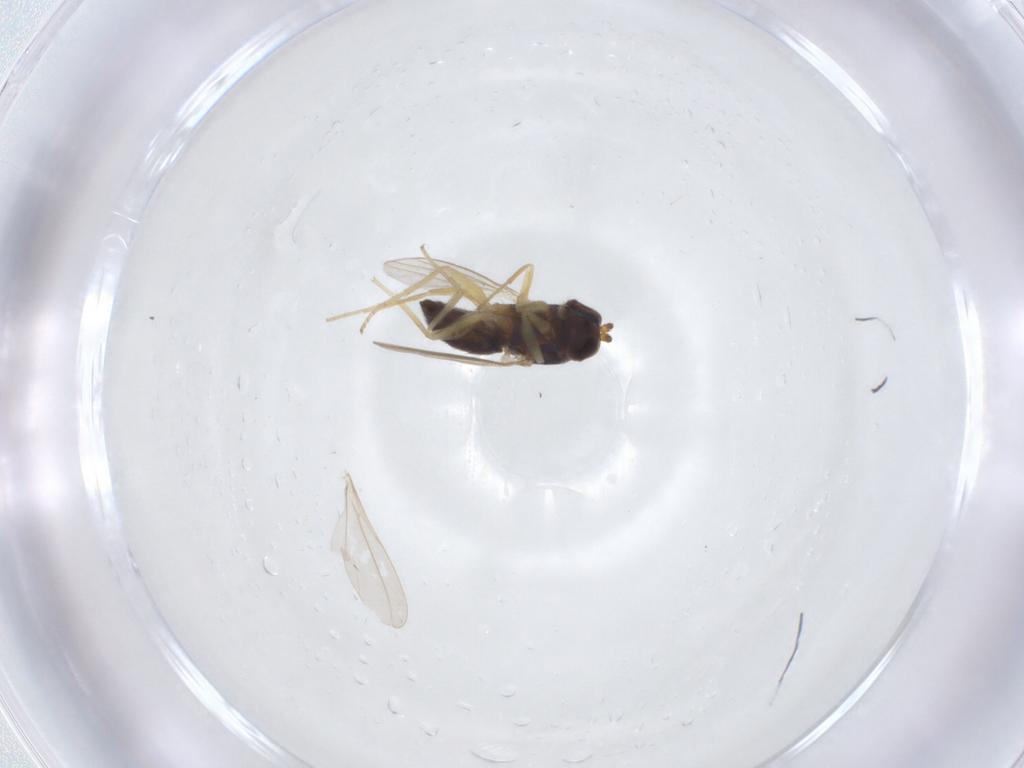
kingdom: Animalia
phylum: Arthropoda
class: Insecta
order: Diptera
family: Dolichopodidae
